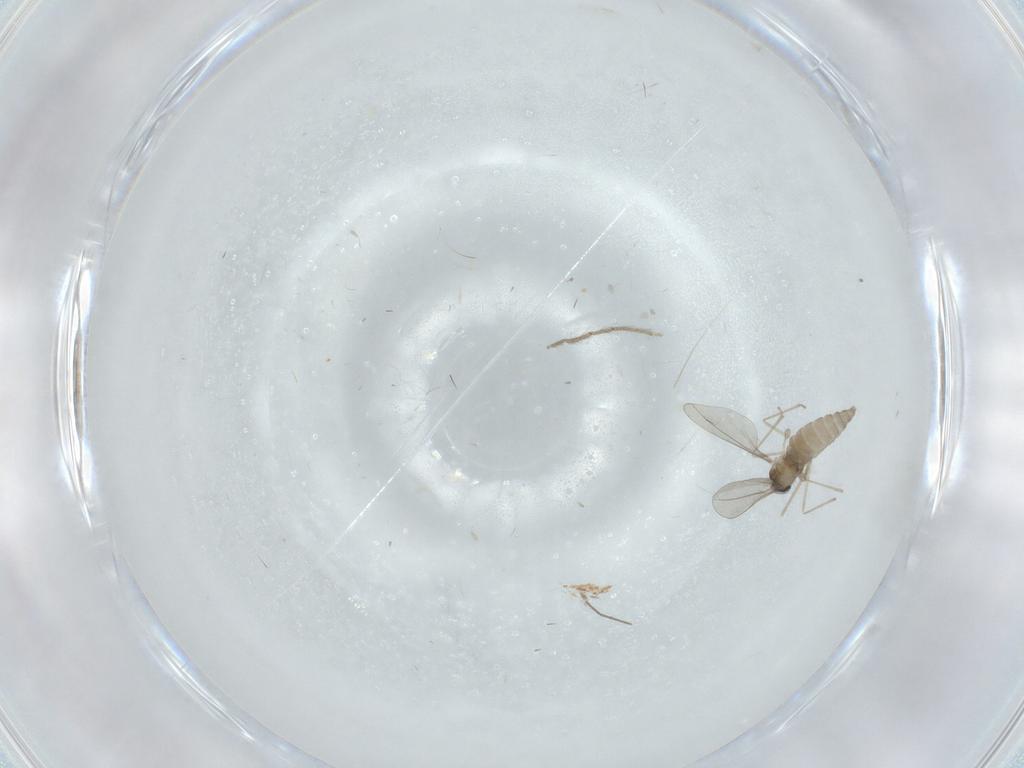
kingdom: Animalia
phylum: Arthropoda
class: Insecta
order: Diptera
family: Chironomidae
